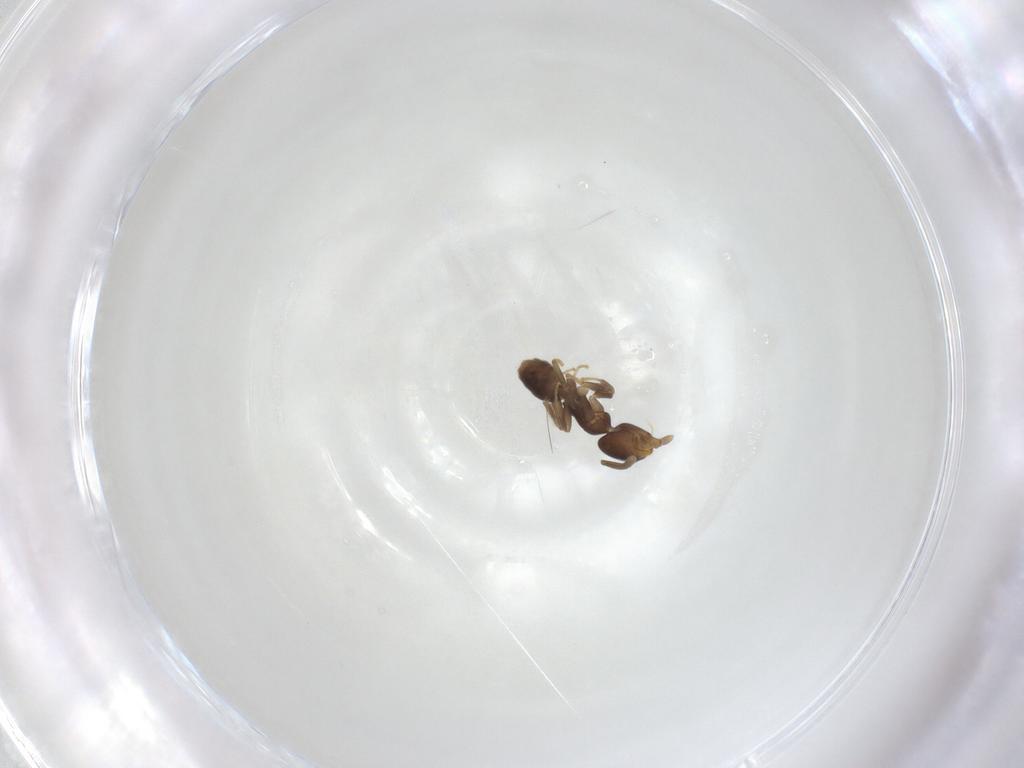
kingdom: Animalia
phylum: Arthropoda
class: Insecta
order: Hymenoptera
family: Formicidae
